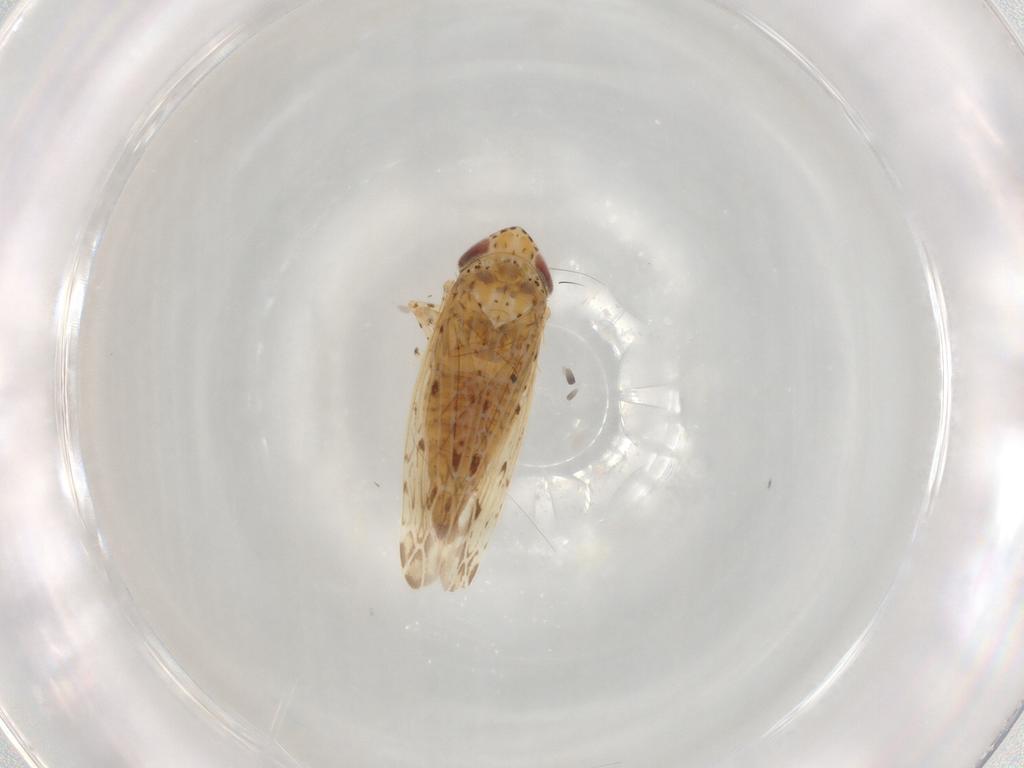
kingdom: Animalia
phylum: Arthropoda
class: Insecta
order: Hemiptera
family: Cicadellidae
